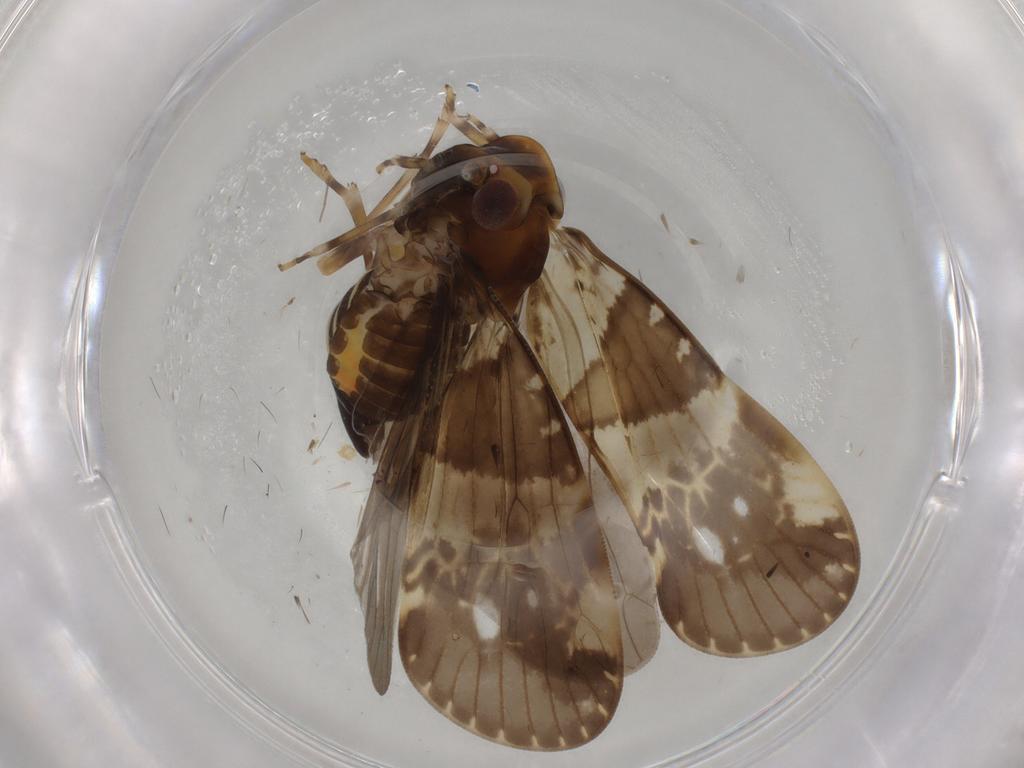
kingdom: Animalia
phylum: Arthropoda
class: Insecta
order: Hemiptera
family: Cixiidae
